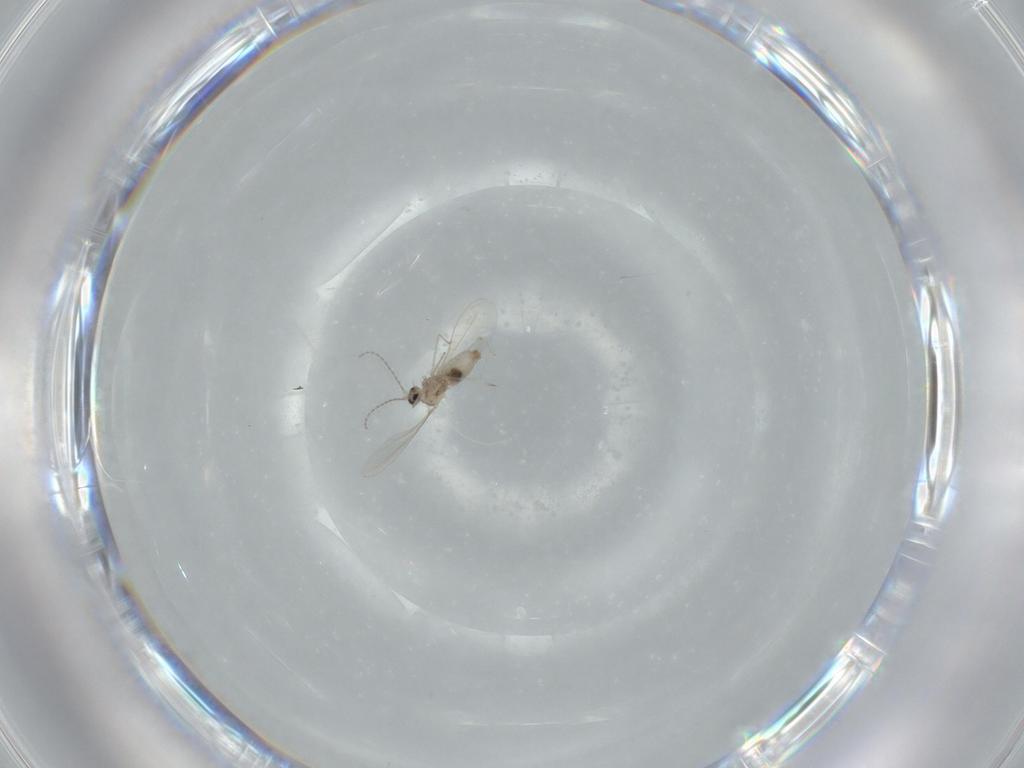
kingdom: Animalia
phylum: Arthropoda
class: Insecta
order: Diptera
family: Cecidomyiidae
